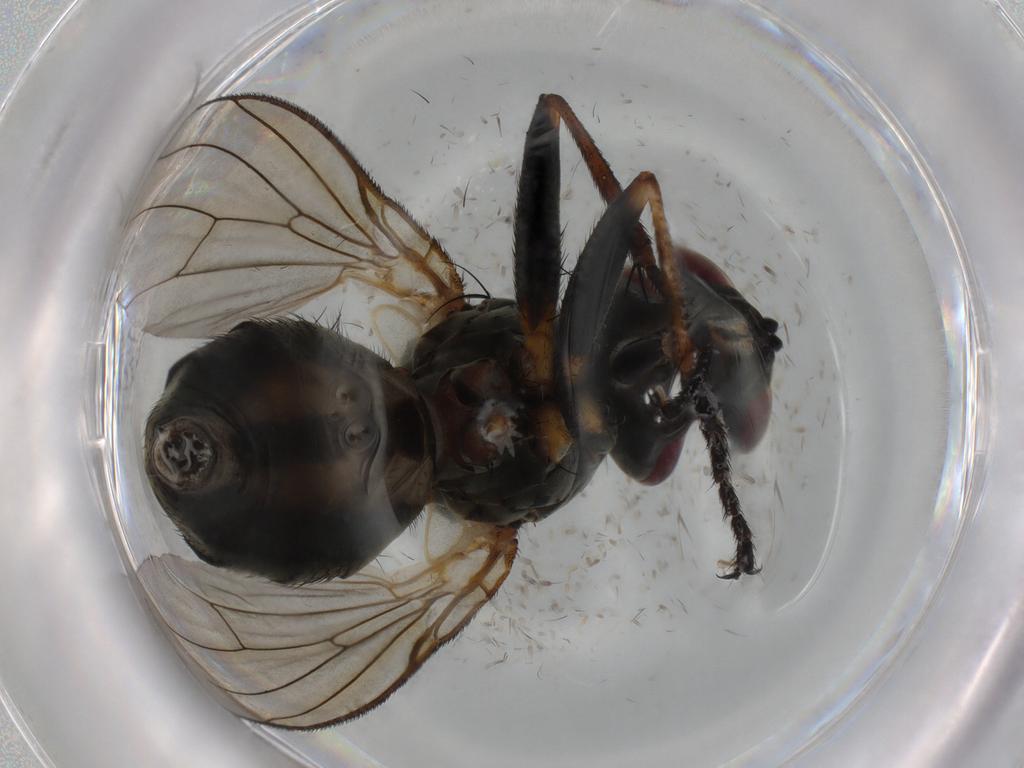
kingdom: Animalia
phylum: Arthropoda
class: Insecta
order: Diptera
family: Muscidae
